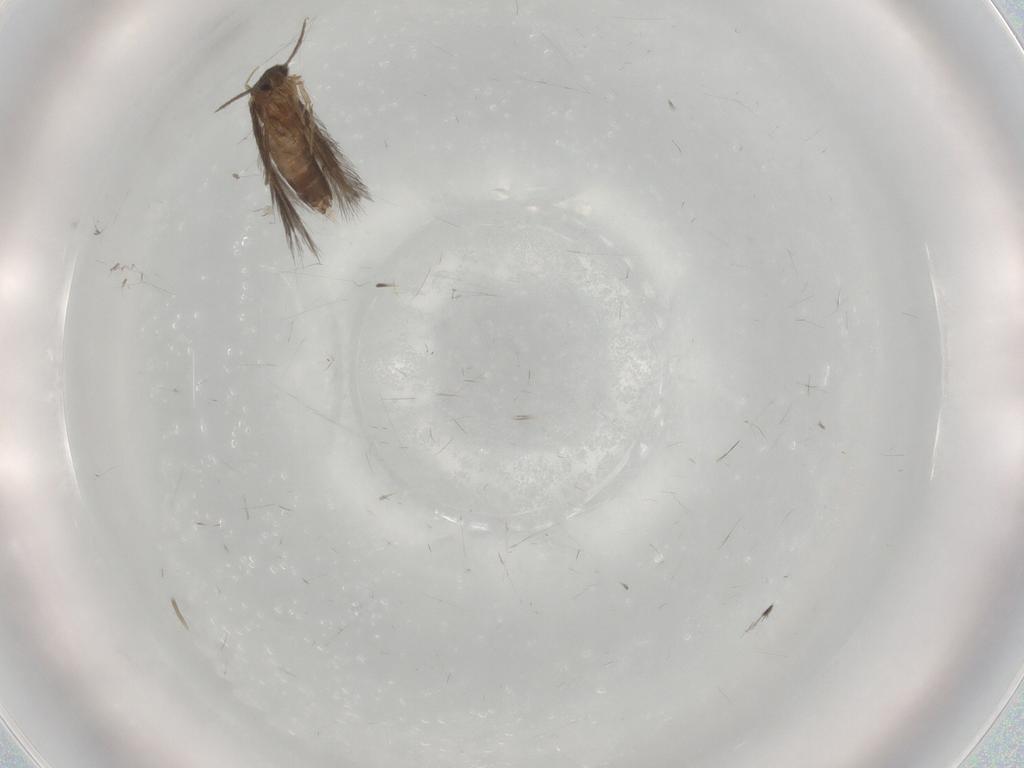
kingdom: Animalia
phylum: Arthropoda
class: Insecta
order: Trichoptera
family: Hydroptilidae
